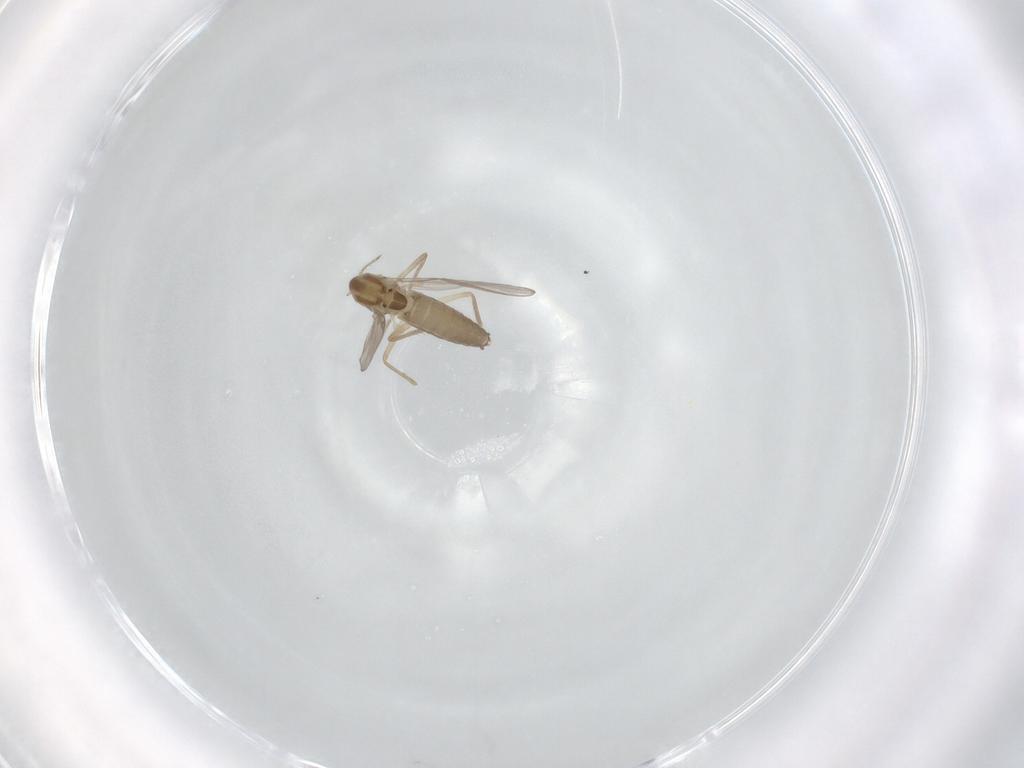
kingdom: Animalia
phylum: Arthropoda
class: Insecta
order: Diptera
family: Chironomidae
